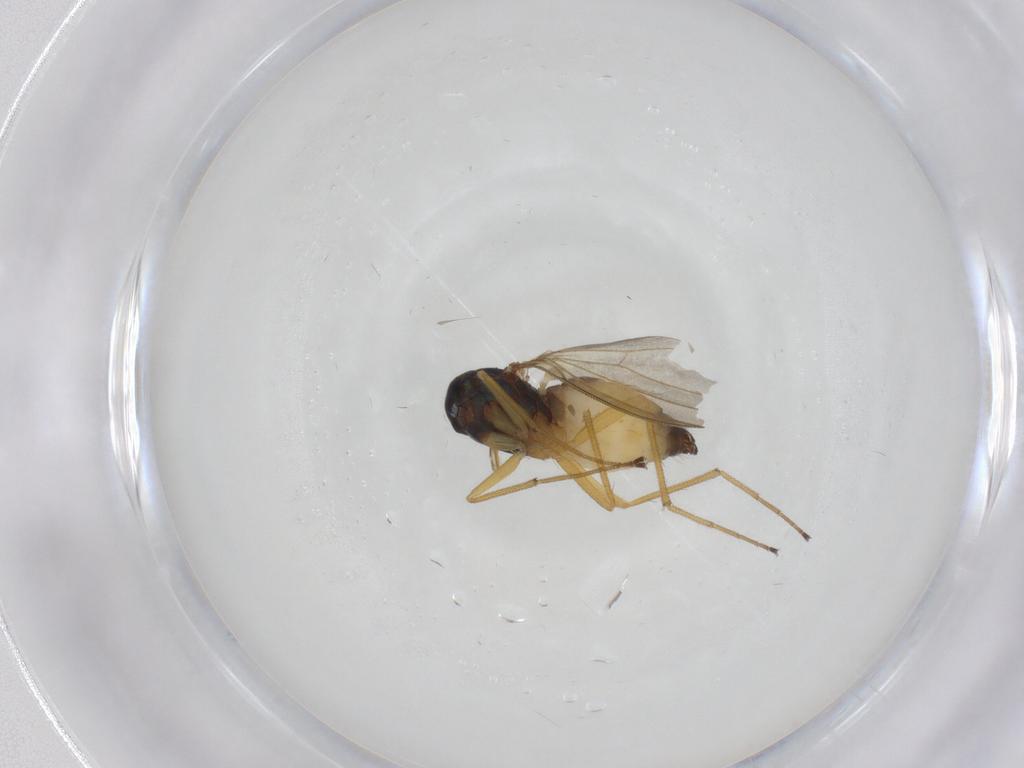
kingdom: Animalia
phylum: Arthropoda
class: Insecta
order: Diptera
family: Dolichopodidae
